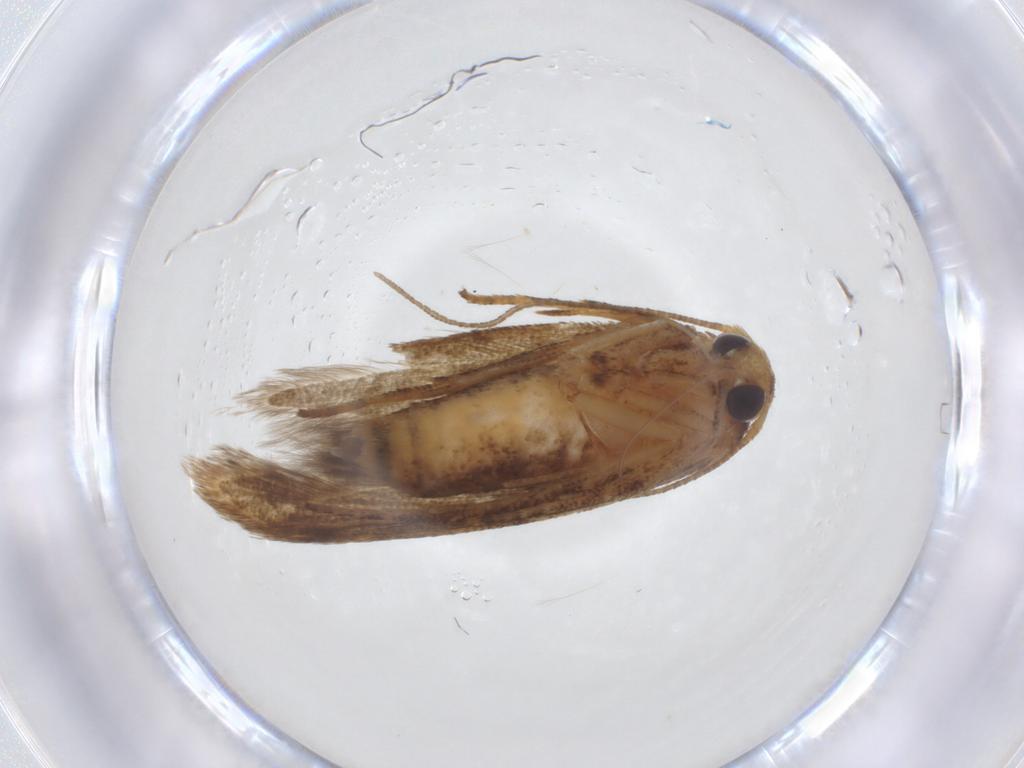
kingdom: Animalia
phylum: Arthropoda
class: Insecta
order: Lepidoptera
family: Blastobasidae
